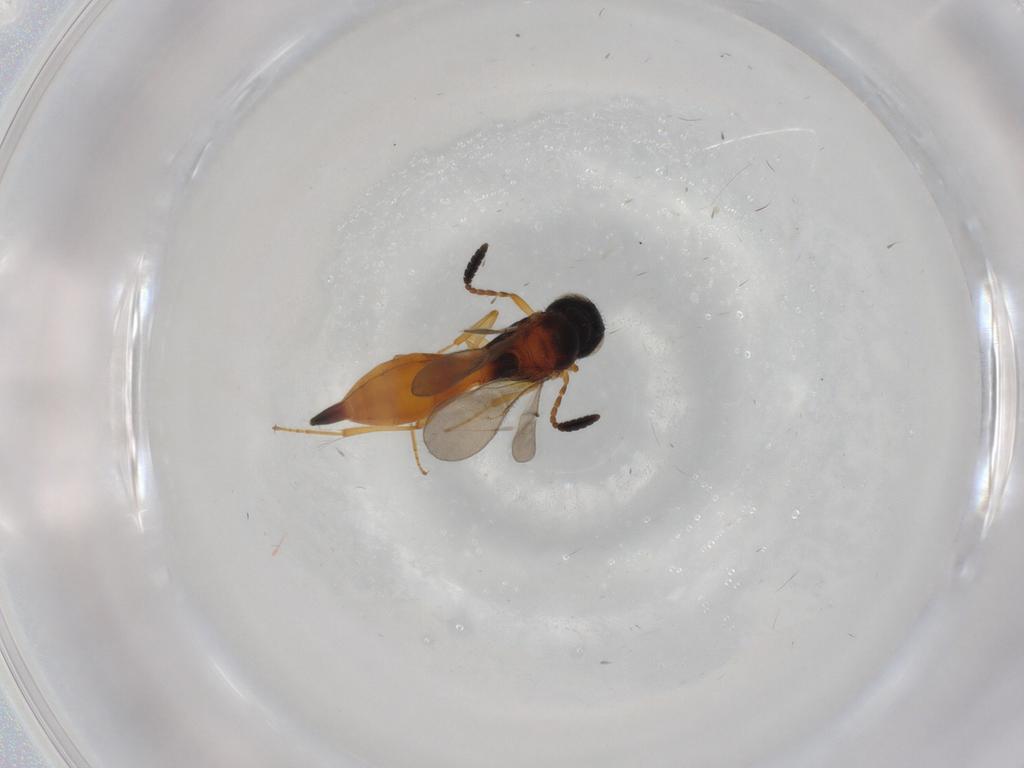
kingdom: Animalia
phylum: Arthropoda
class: Insecta
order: Hymenoptera
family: Scelionidae
